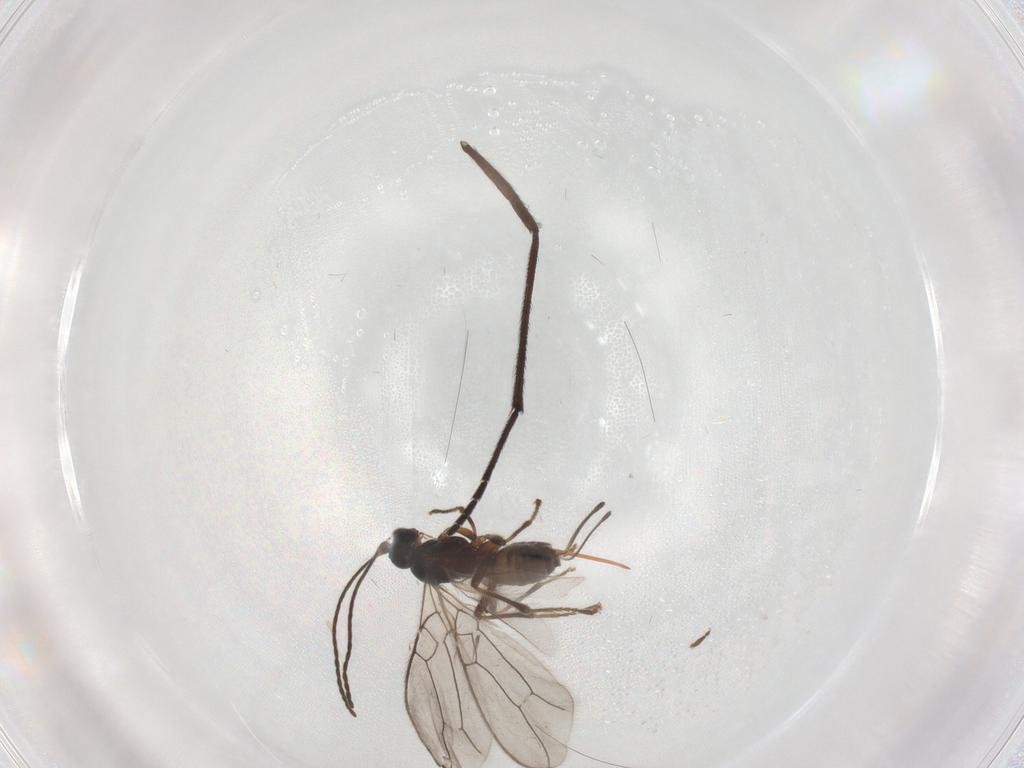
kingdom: Animalia
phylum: Arthropoda
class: Insecta
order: Hymenoptera
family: Braconidae
